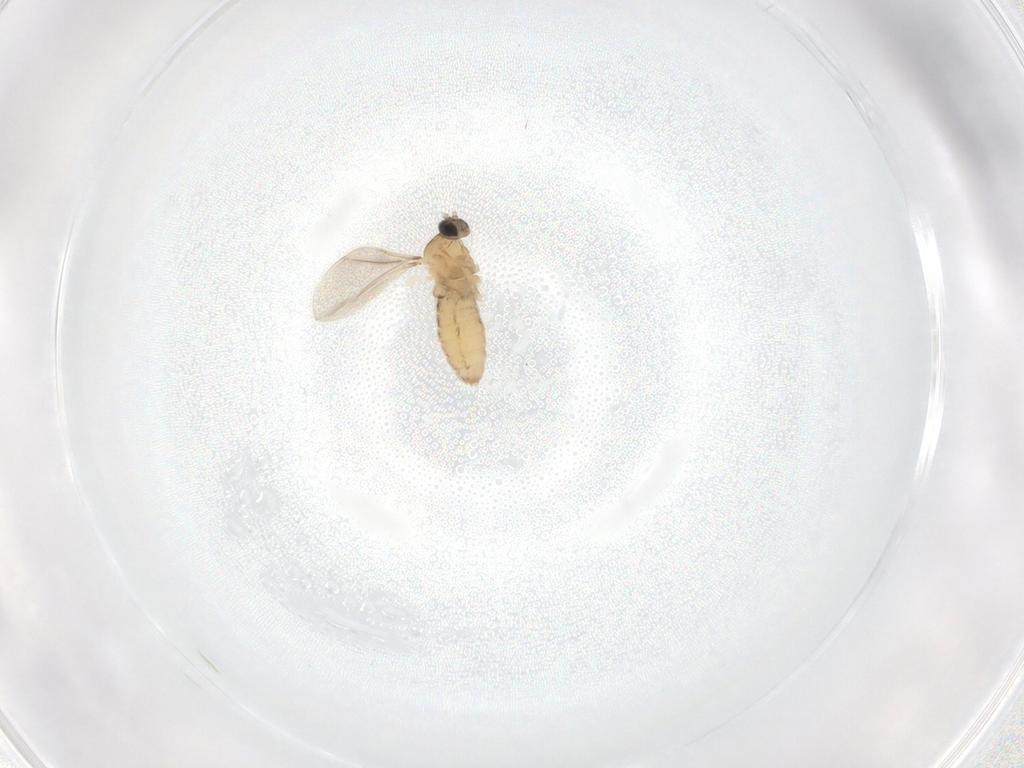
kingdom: Animalia
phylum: Arthropoda
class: Insecta
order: Diptera
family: Cecidomyiidae
